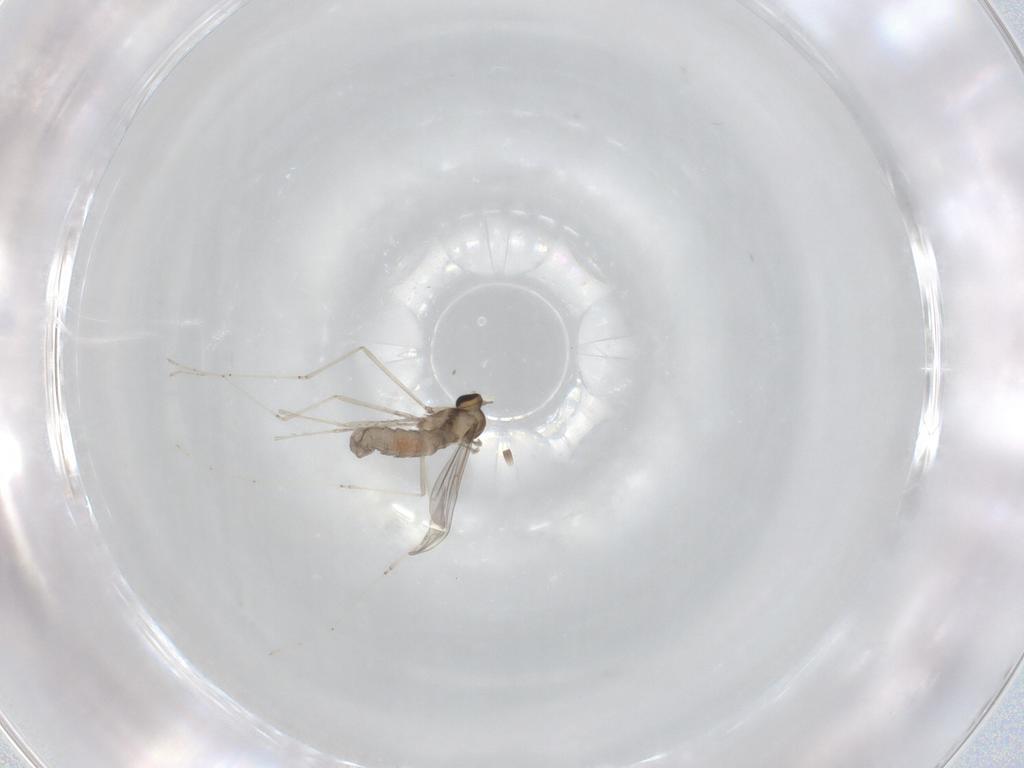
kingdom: Animalia
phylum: Arthropoda
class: Insecta
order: Diptera
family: Cecidomyiidae
